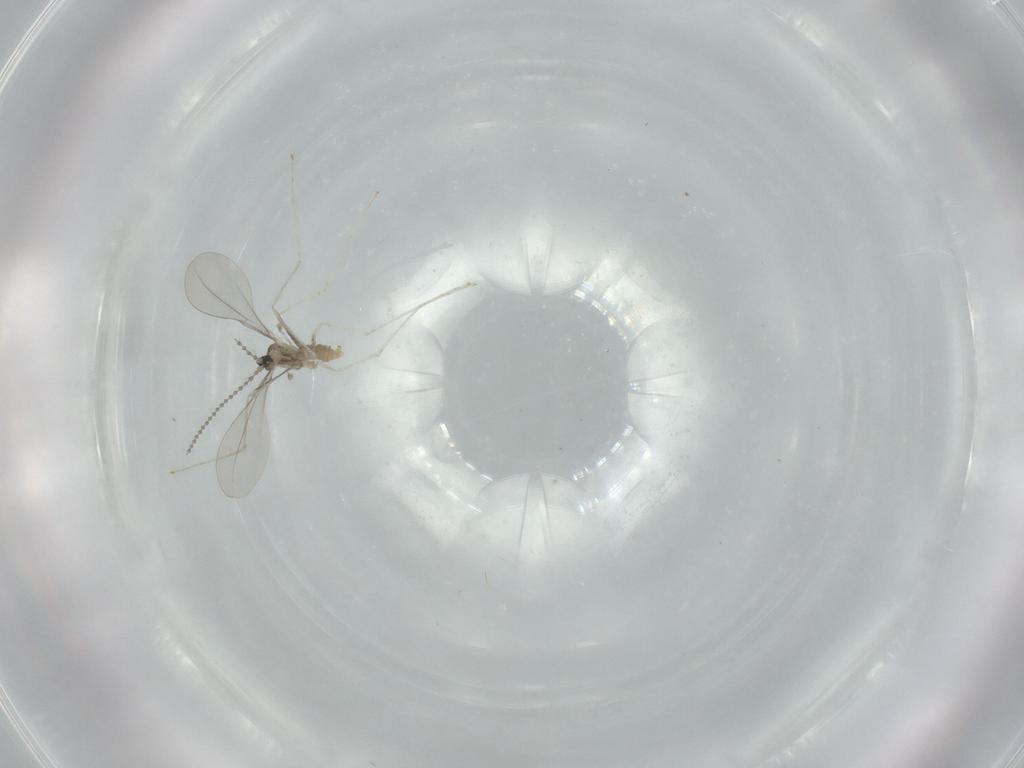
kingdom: Animalia
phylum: Arthropoda
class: Insecta
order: Diptera
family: Cecidomyiidae
